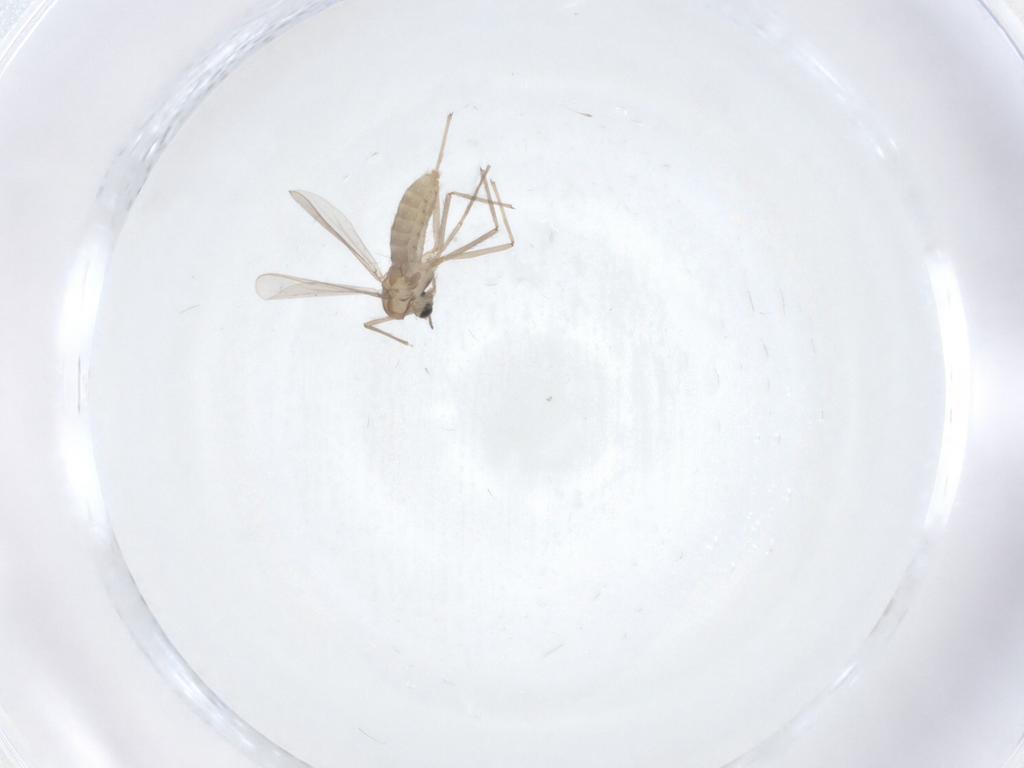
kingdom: Animalia
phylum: Arthropoda
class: Insecta
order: Diptera
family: Chironomidae
